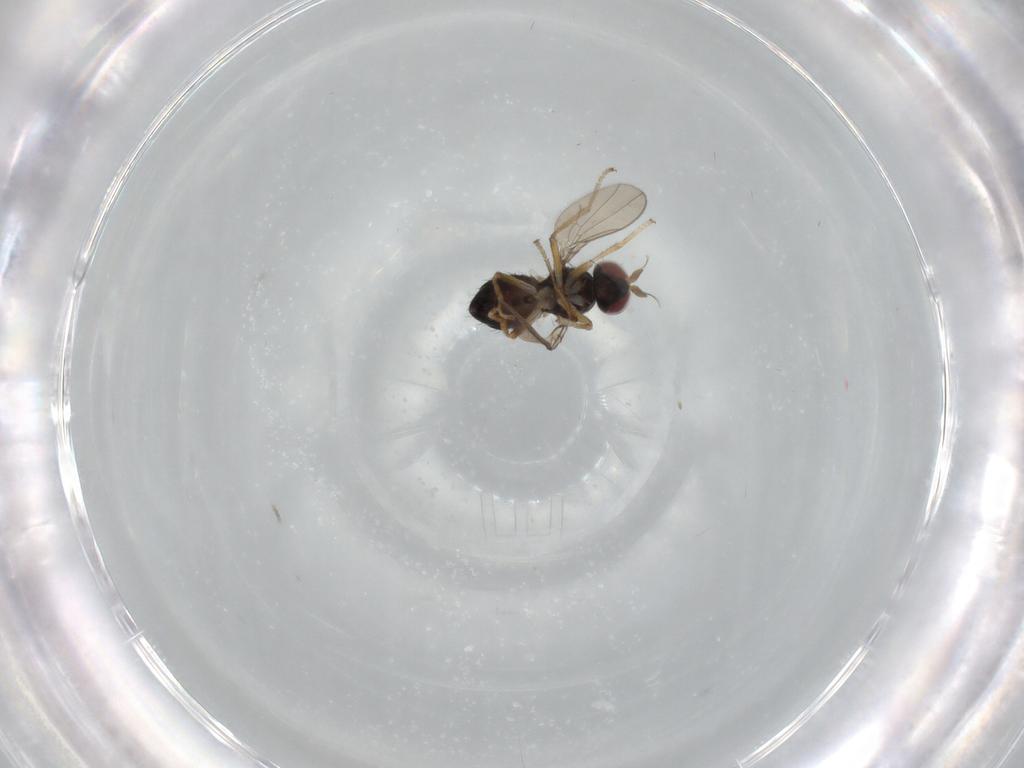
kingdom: Animalia
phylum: Arthropoda
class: Insecta
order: Diptera
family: Ephydridae
